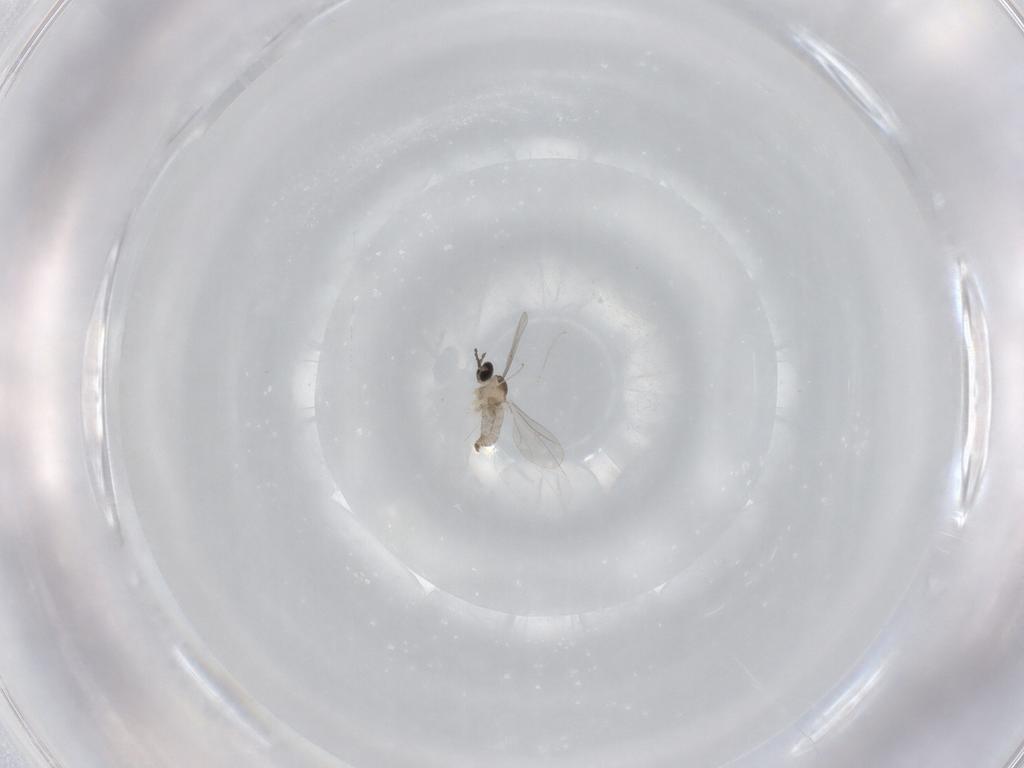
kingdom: Animalia
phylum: Arthropoda
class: Insecta
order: Diptera
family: Cecidomyiidae
